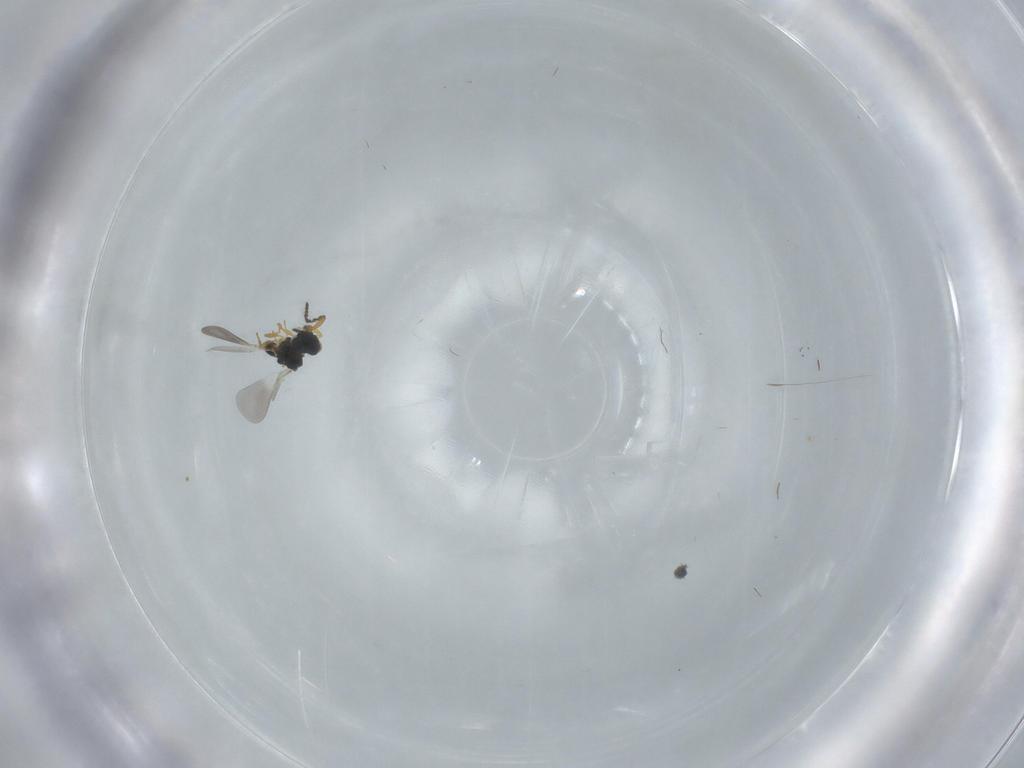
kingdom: Animalia
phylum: Arthropoda
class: Insecta
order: Hymenoptera
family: Platygastridae
